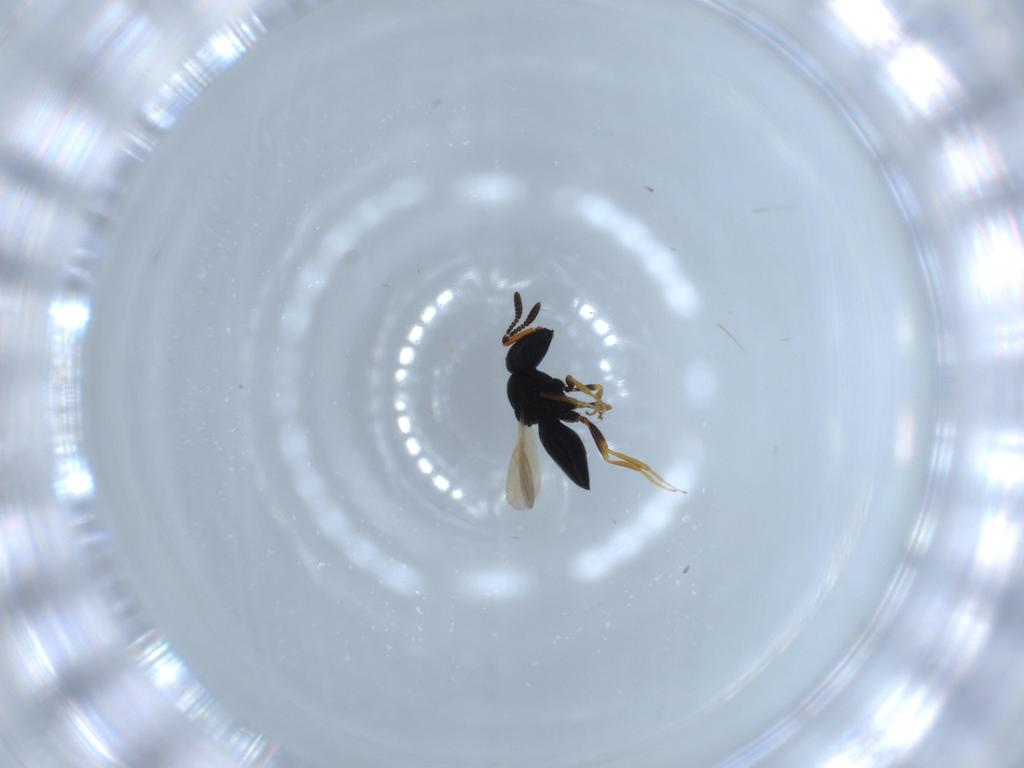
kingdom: Animalia
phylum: Arthropoda
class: Insecta
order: Hymenoptera
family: Scelionidae
